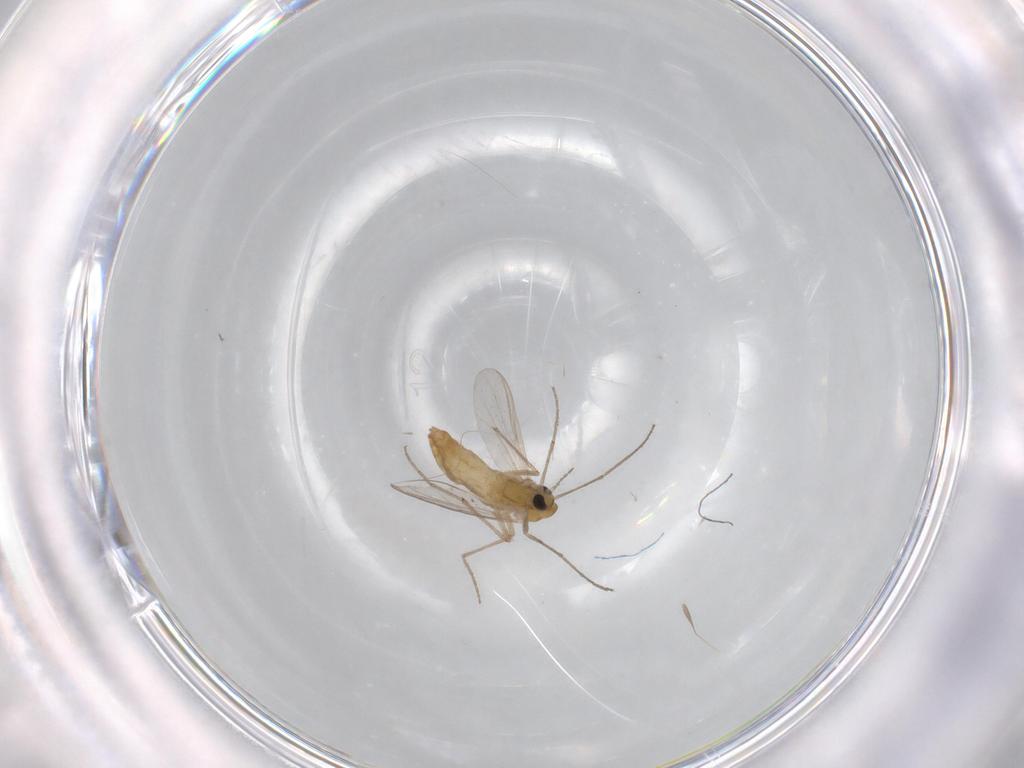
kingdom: Animalia
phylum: Arthropoda
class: Insecta
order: Diptera
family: Chironomidae
